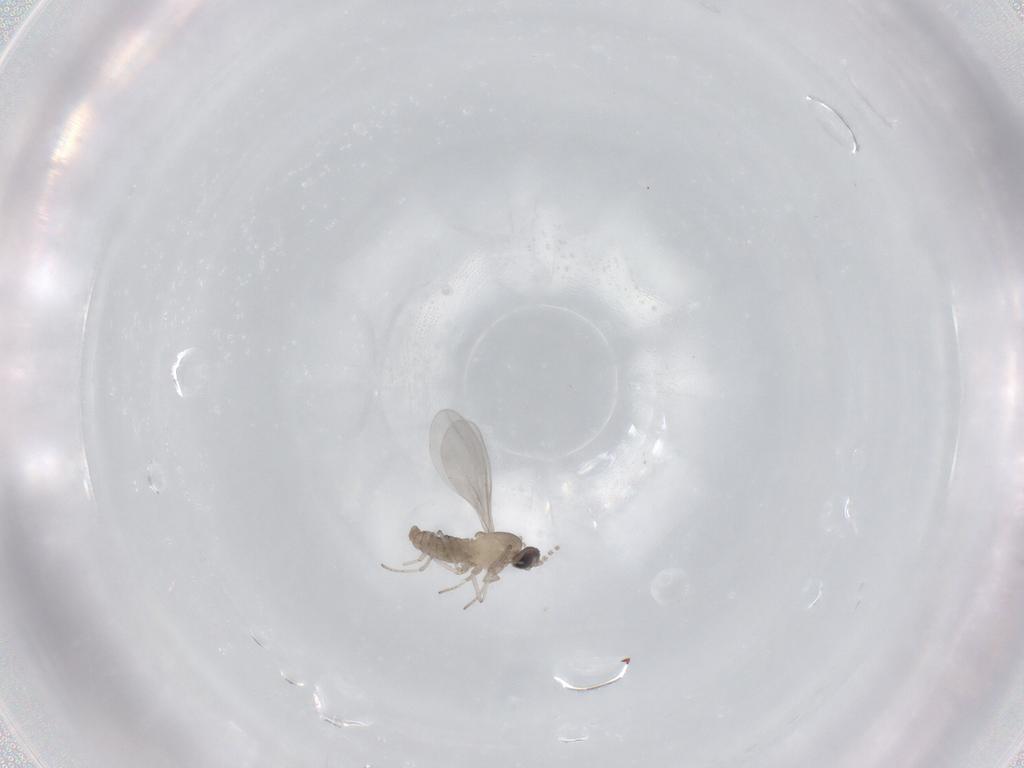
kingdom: Animalia
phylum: Arthropoda
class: Insecta
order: Diptera
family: Cecidomyiidae
